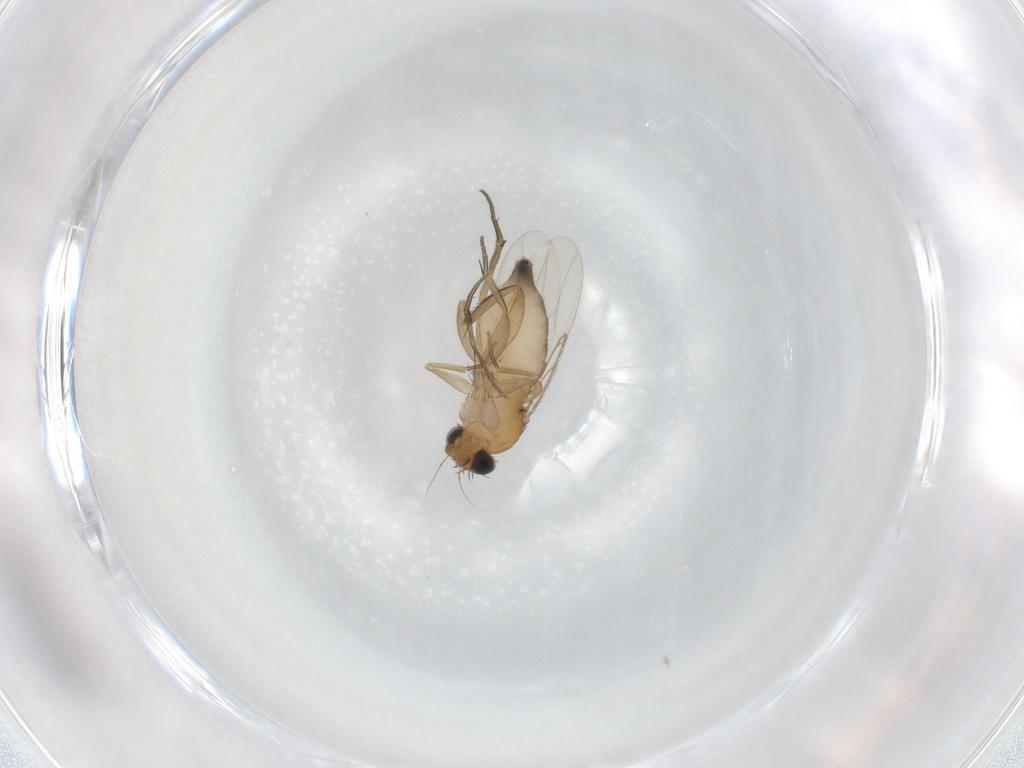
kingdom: Animalia
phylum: Arthropoda
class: Insecta
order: Diptera
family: Phoridae
